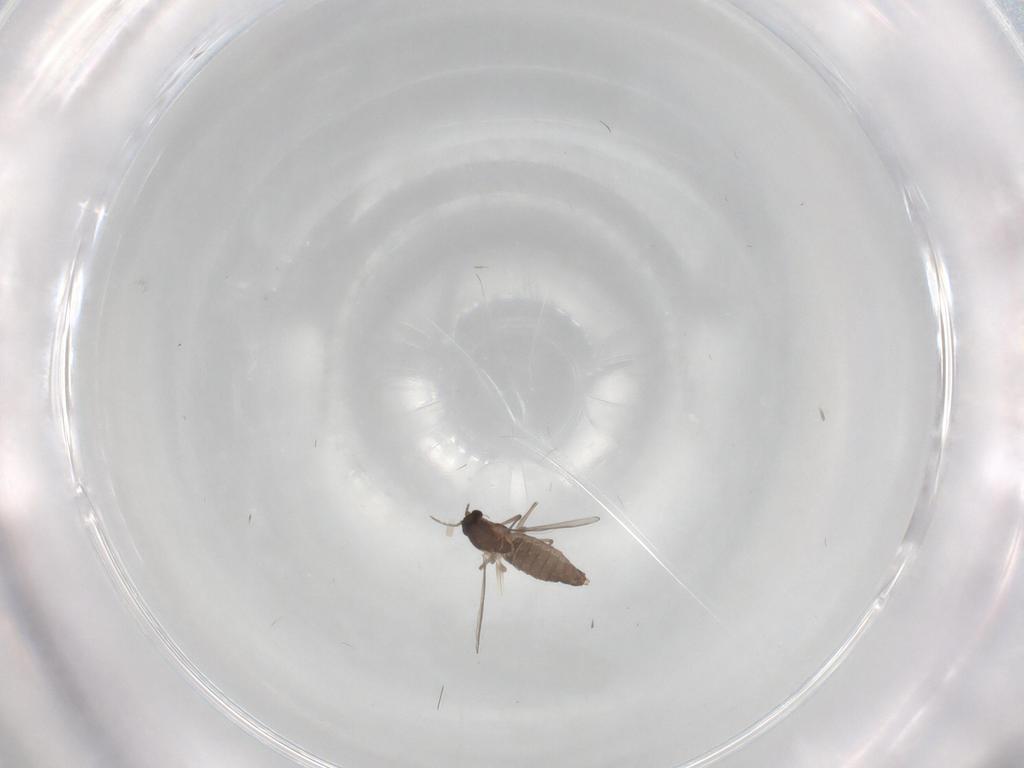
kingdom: Animalia
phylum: Arthropoda
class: Insecta
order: Diptera
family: Chironomidae
